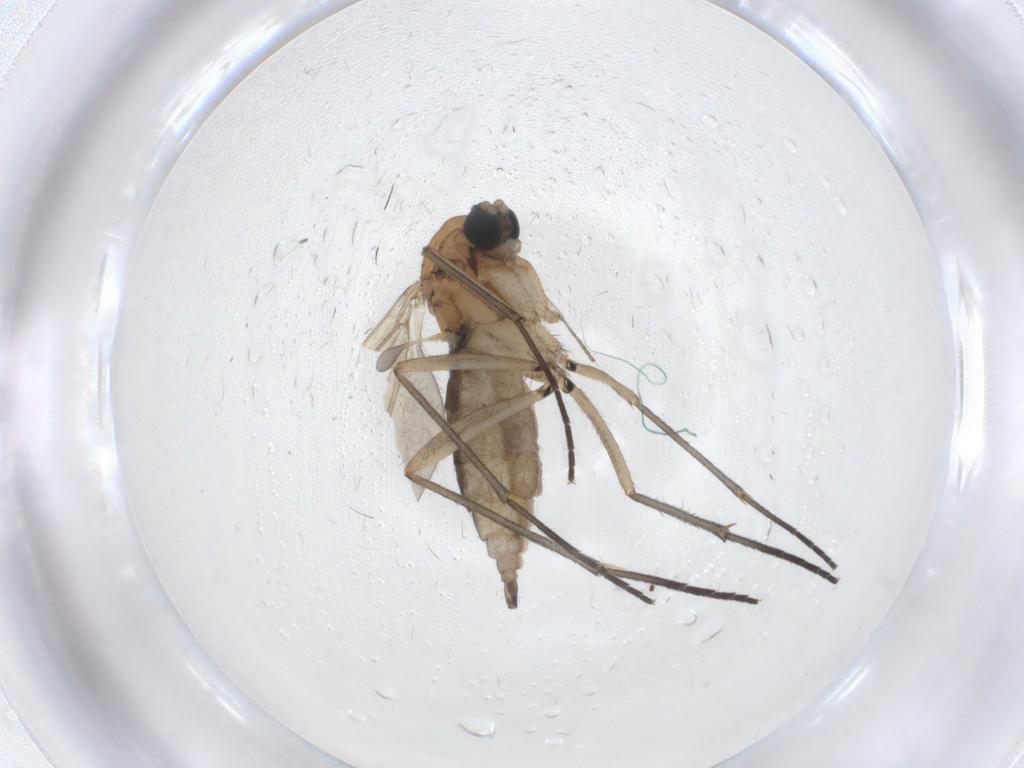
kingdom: Animalia
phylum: Arthropoda
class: Insecta
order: Diptera
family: Sciaridae
